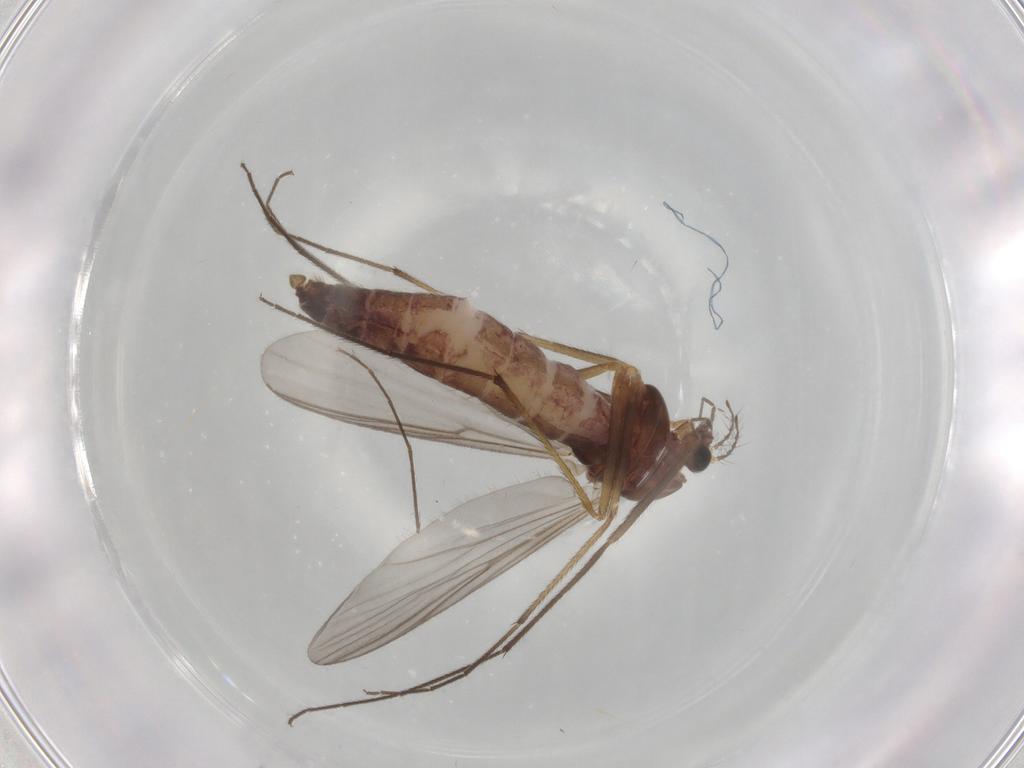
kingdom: Animalia
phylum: Arthropoda
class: Insecta
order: Diptera
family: Chironomidae
